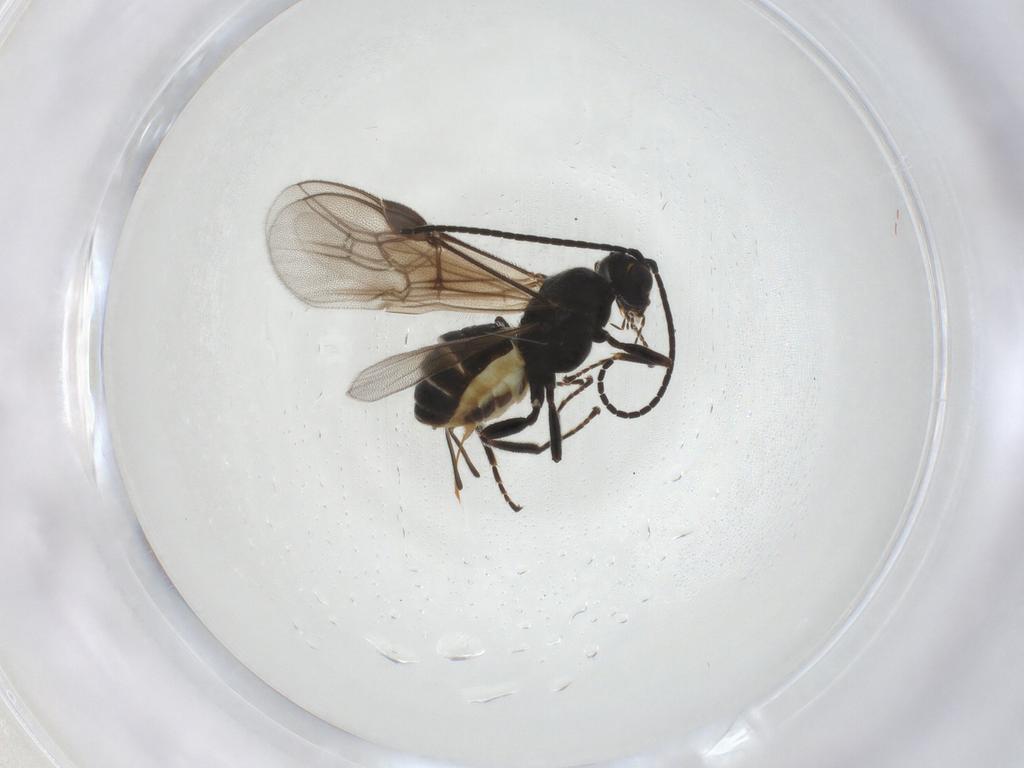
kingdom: Animalia
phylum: Arthropoda
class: Insecta
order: Hymenoptera
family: Braconidae
